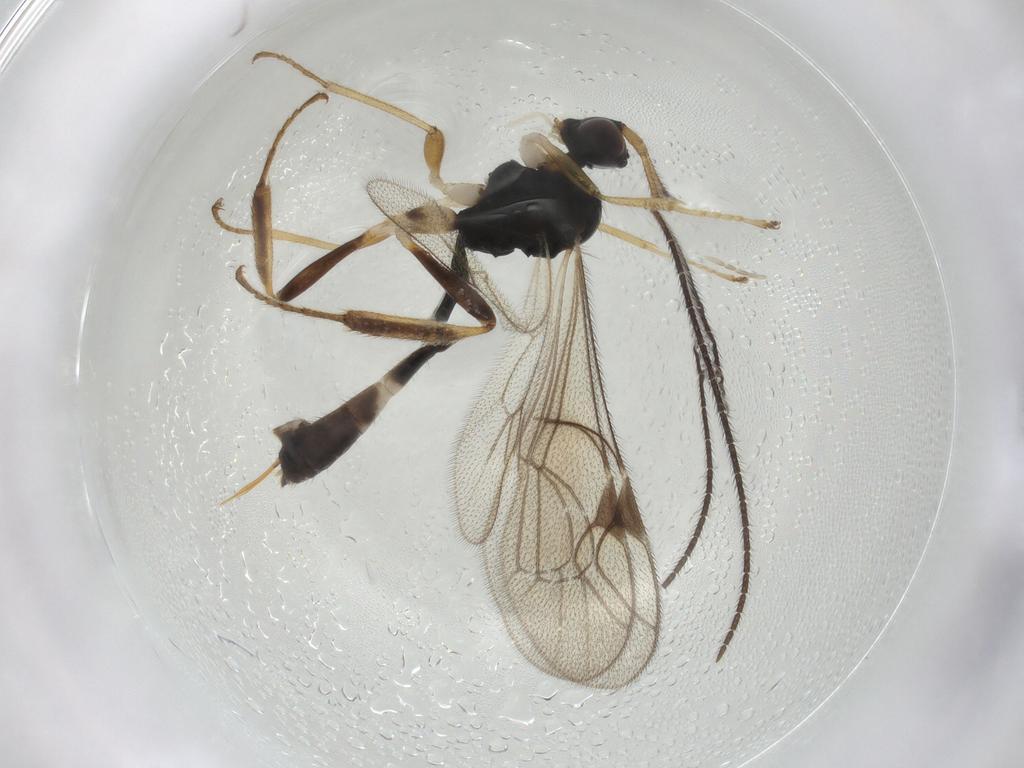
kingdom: Animalia
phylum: Arthropoda
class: Insecta
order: Hymenoptera
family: Ichneumonidae
